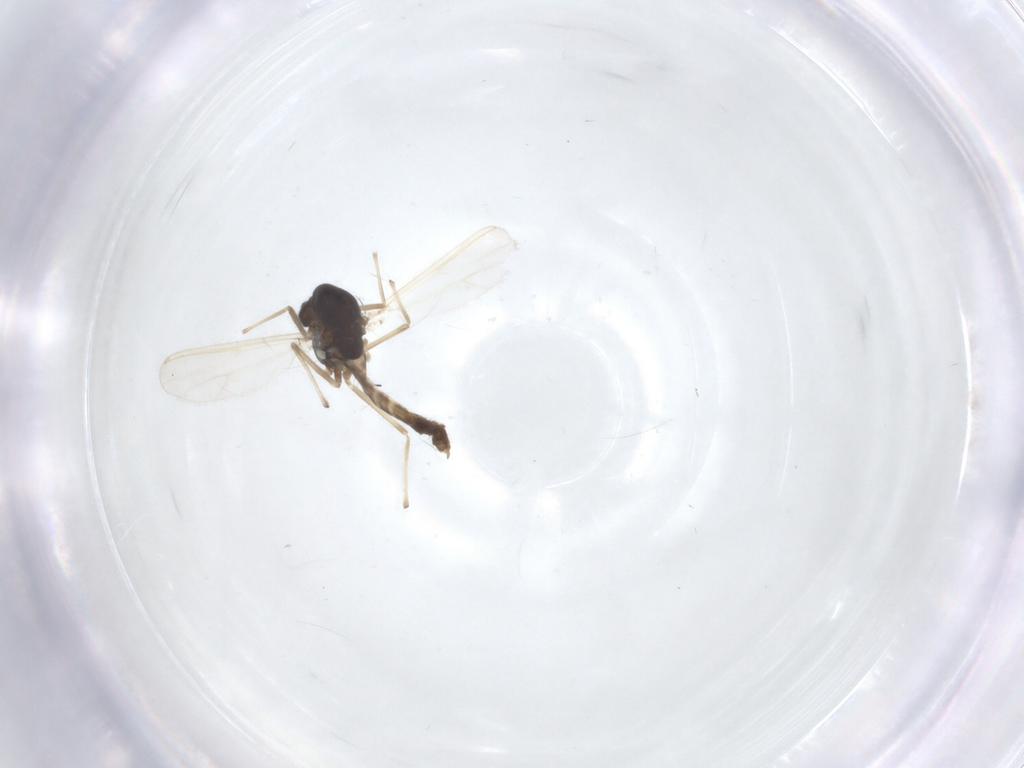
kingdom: Animalia
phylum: Arthropoda
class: Insecta
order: Diptera
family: Chironomidae
